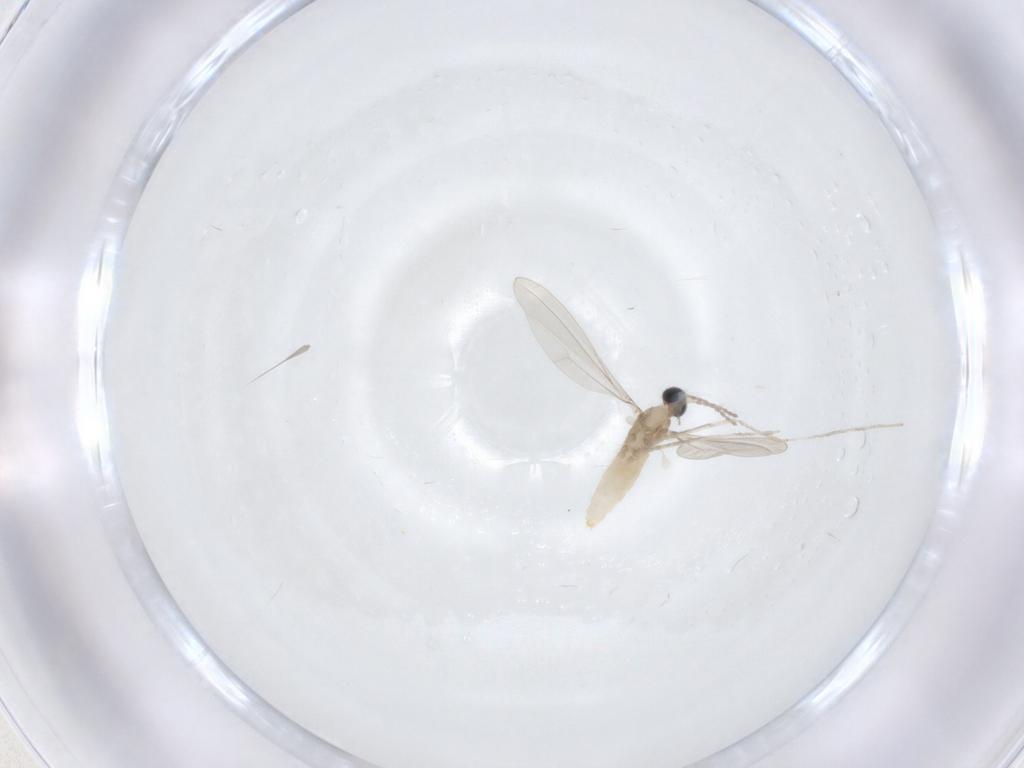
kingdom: Animalia
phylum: Arthropoda
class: Insecta
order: Diptera
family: Cecidomyiidae
